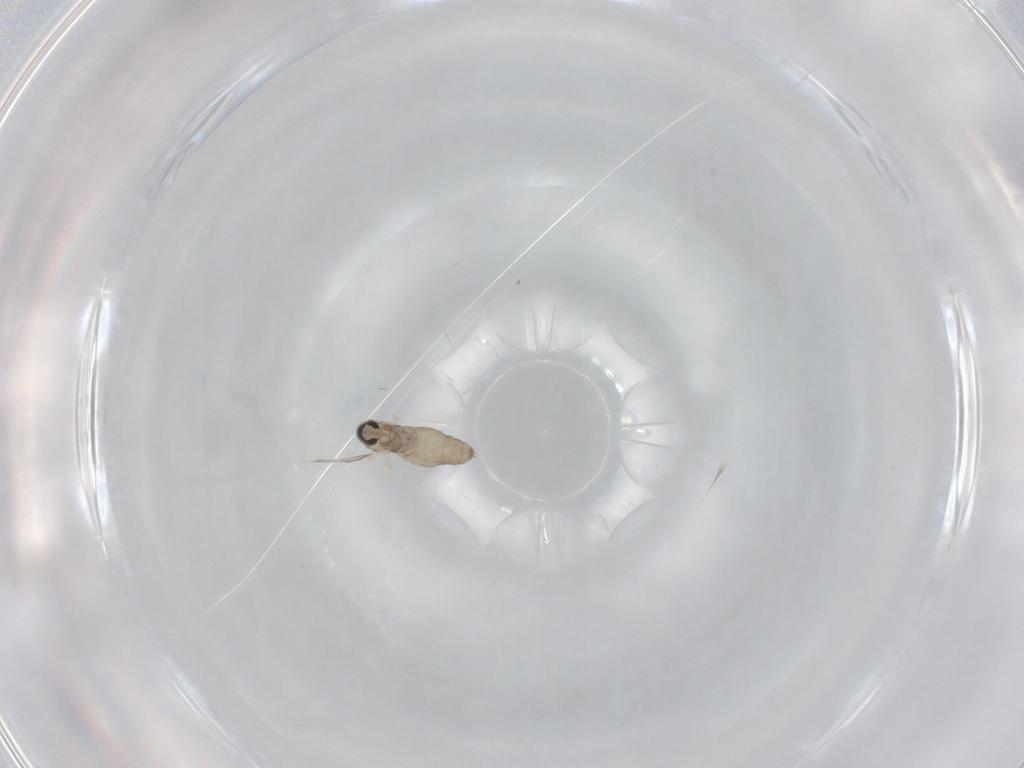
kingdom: Animalia
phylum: Arthropoda
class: Insecta
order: Diptera
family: Cecidomyiidae
